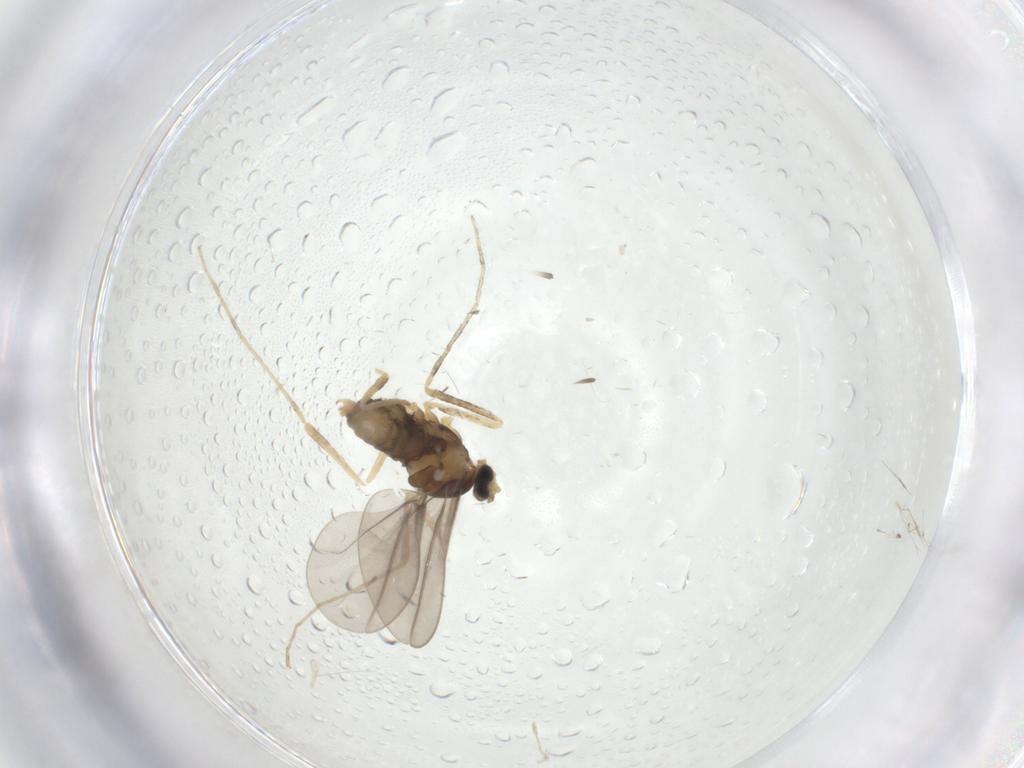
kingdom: Animalia
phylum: Arthropoda
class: Insecta
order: Diptera
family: Cecidomyiidae
